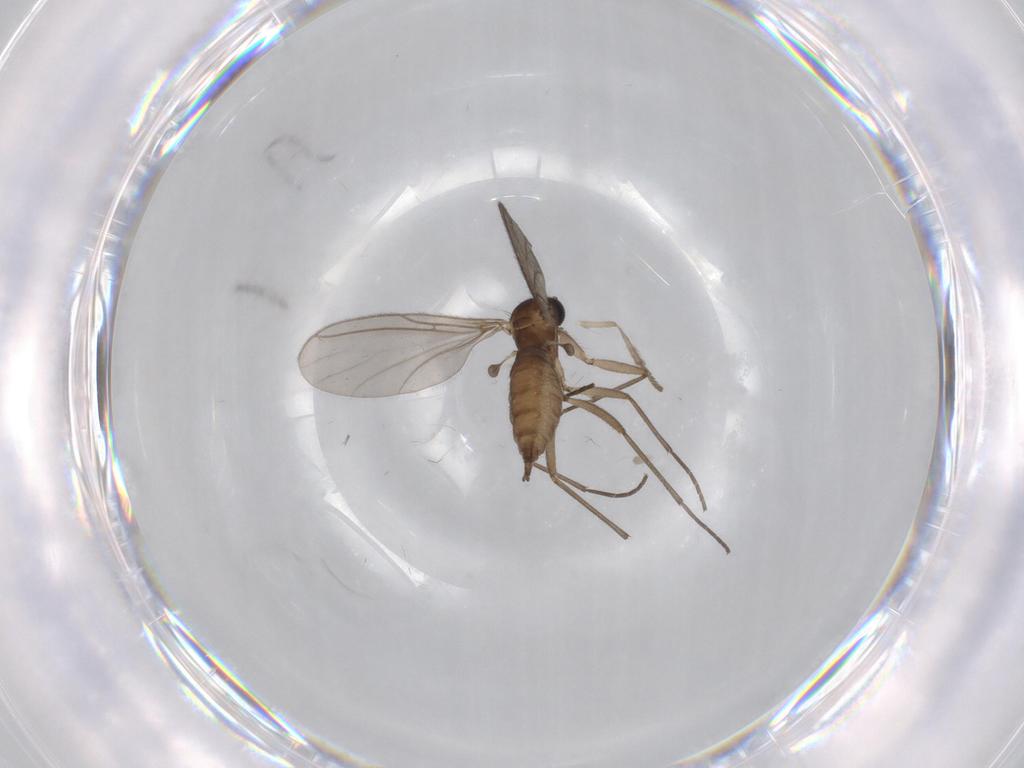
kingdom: Animalia
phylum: Arthropoda
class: Insecta
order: Diptera
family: Sciaridae
